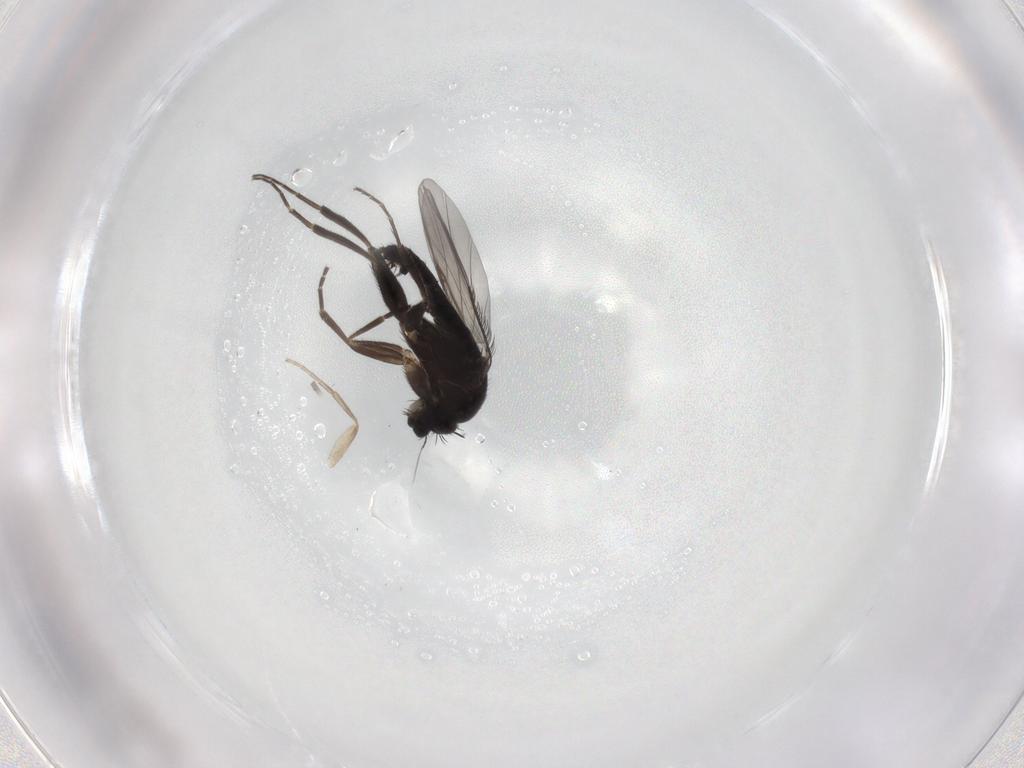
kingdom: Animalia
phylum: Arthropoda
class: Insecta
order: Diptera
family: Phoridae
